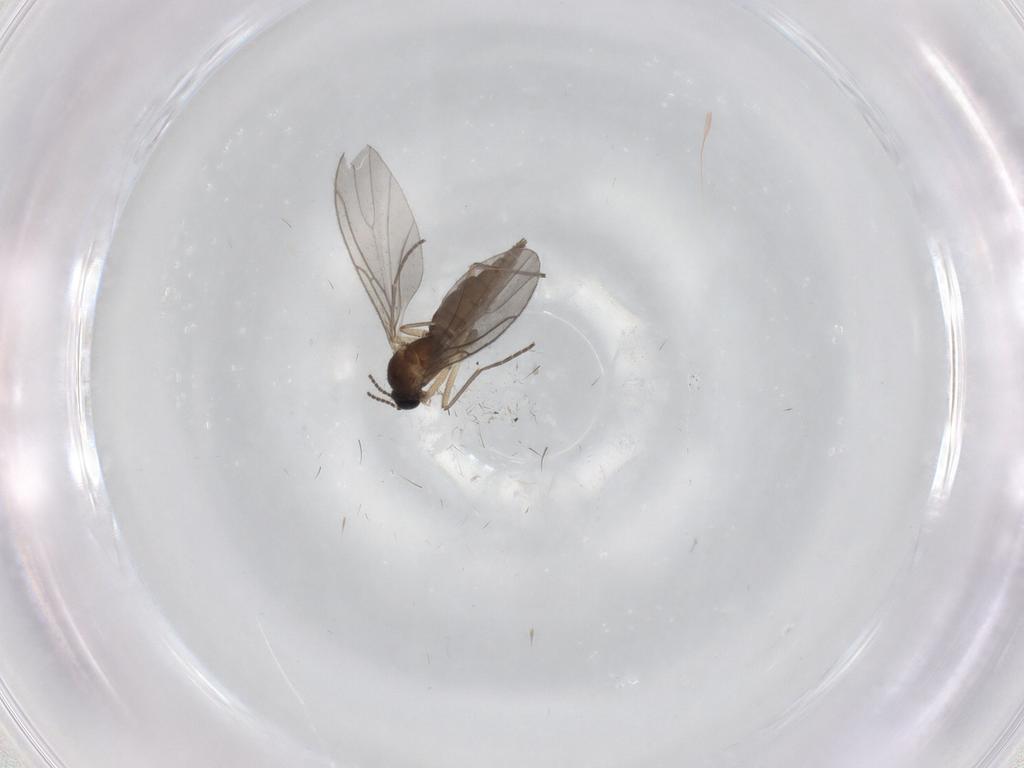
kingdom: Animalia
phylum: Arthropoda
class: Insecta
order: Diptera
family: Sciaridae
